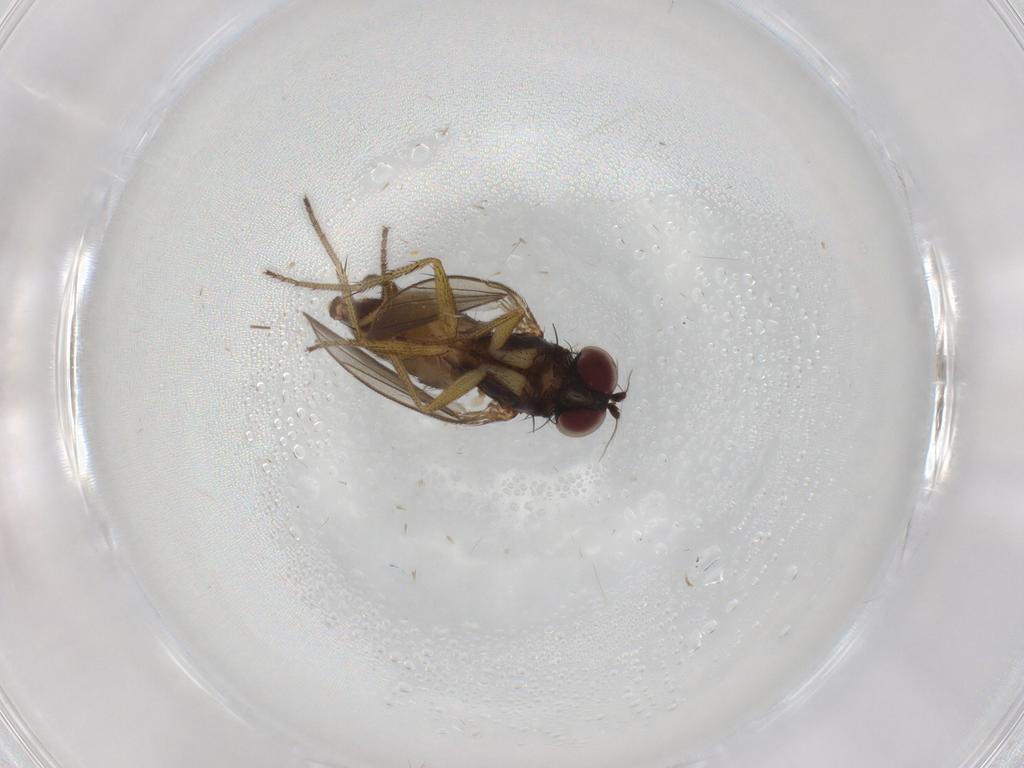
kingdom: Animalia
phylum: Arthropoda
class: Insecta
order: Diptera
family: Ceratopogonidae
